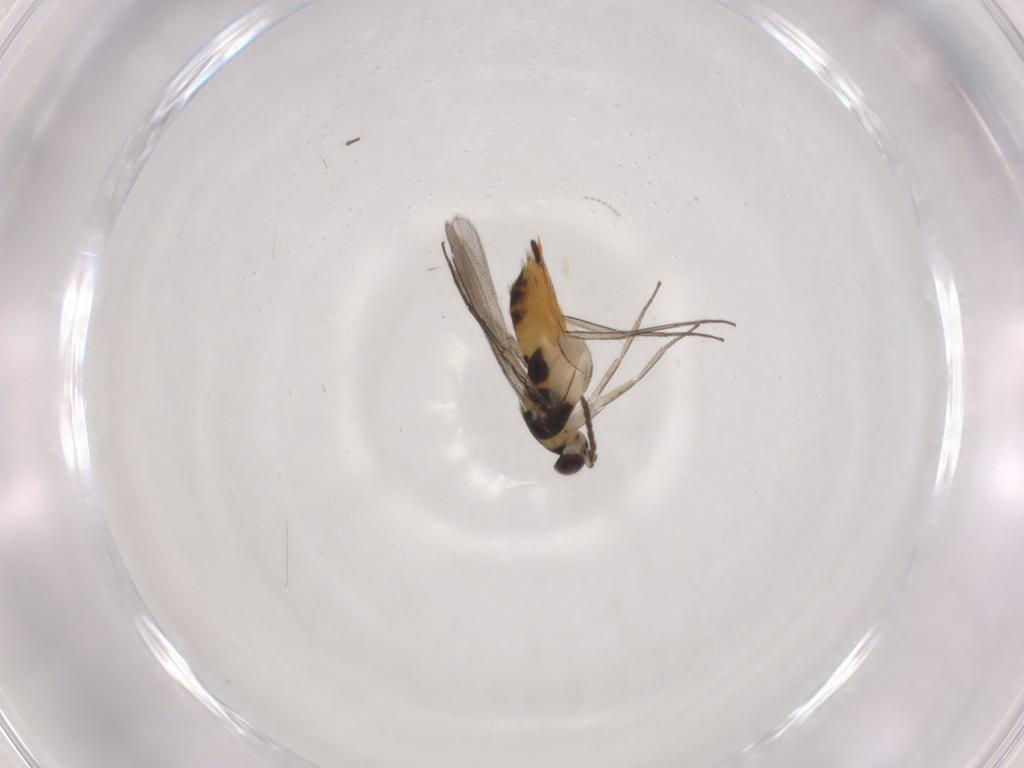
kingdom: Animalia
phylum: Arthropoda
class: Insecta
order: Hymenoptera
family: Eulophidae
